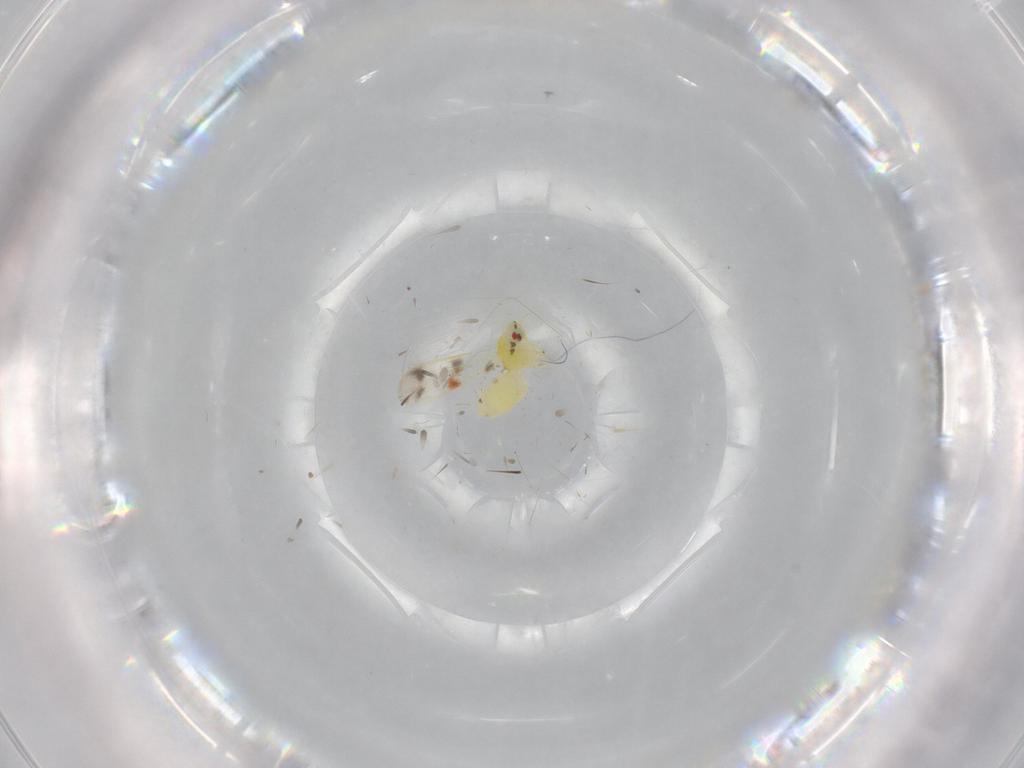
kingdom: Animalia
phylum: Arthropoda
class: Insecta
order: Hemiptera
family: Aleyrodidae
